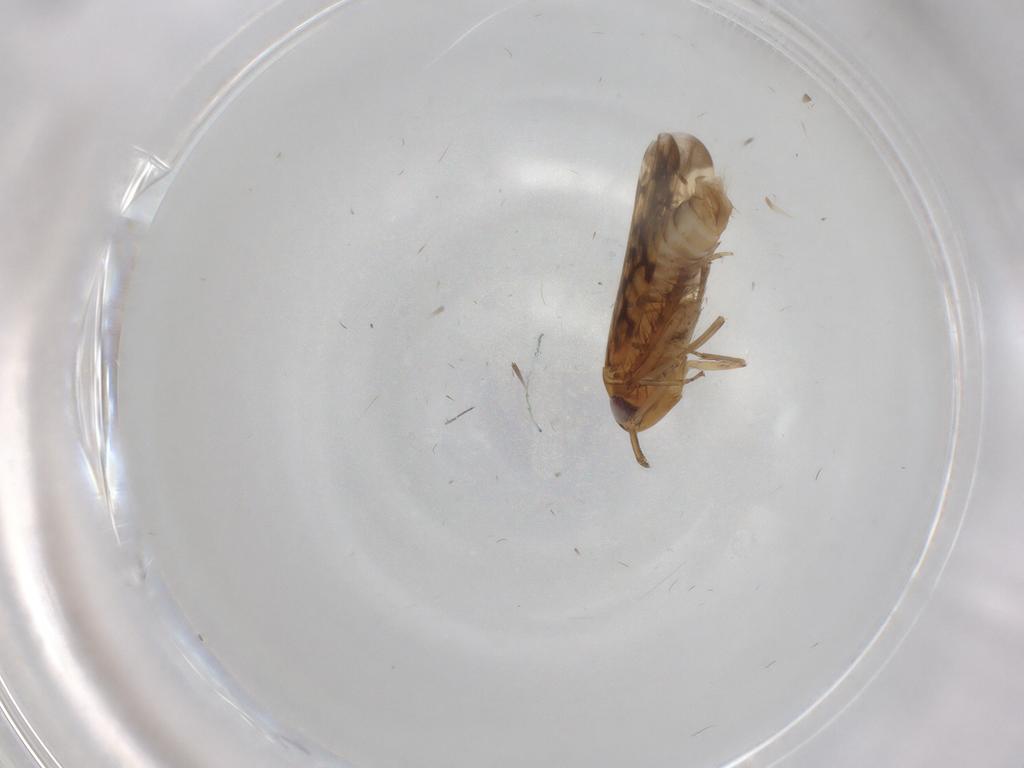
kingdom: Animalia
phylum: Arthropoda
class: Insecta
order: Hemiptera
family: Cicadellidae
